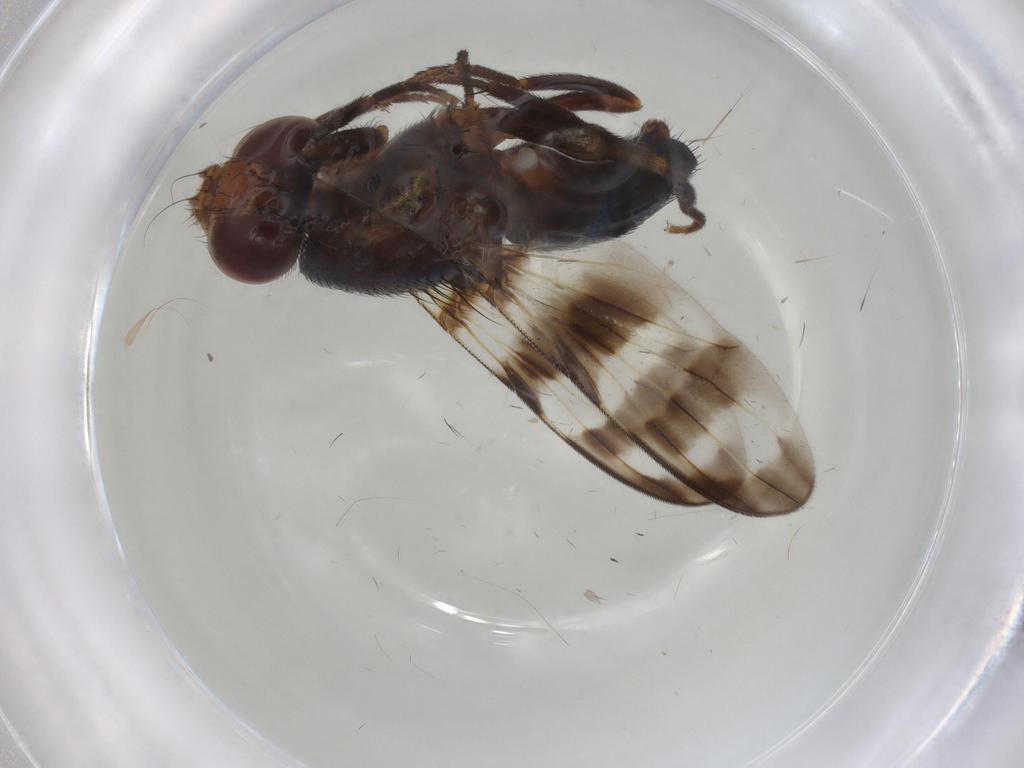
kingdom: Animalia
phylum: Arthropoda
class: Insecta
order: Diptera
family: Ulidiidae
